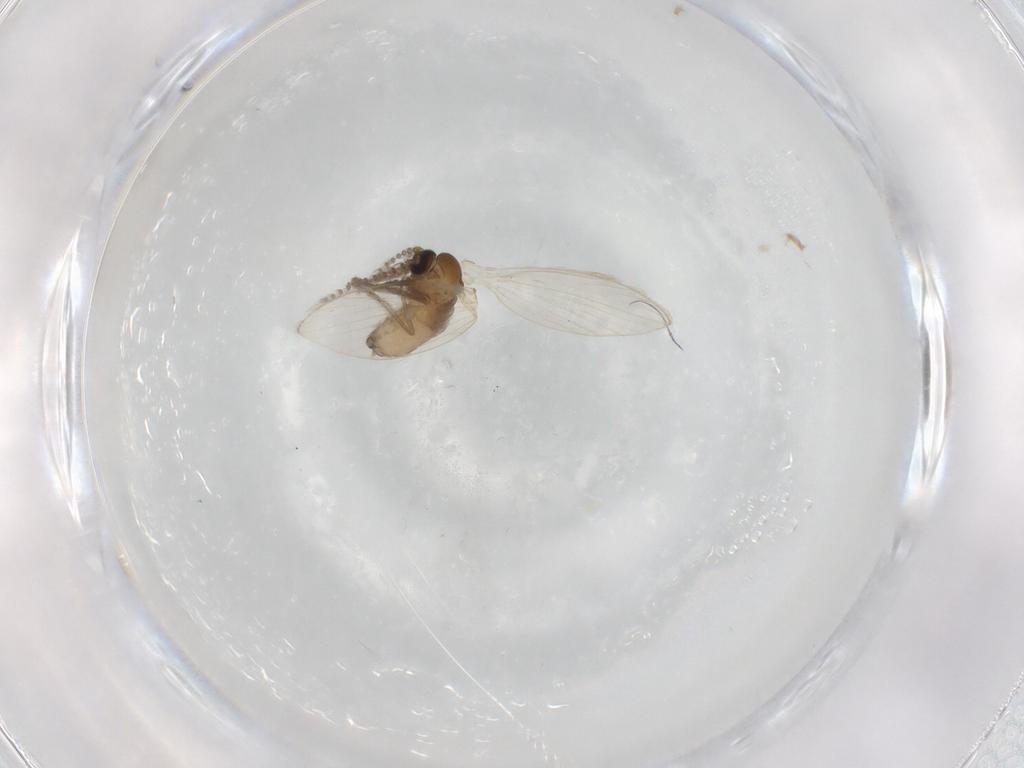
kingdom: Animalia
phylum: Arthropoda
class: Insecta
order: Diptera
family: Psychodidae
